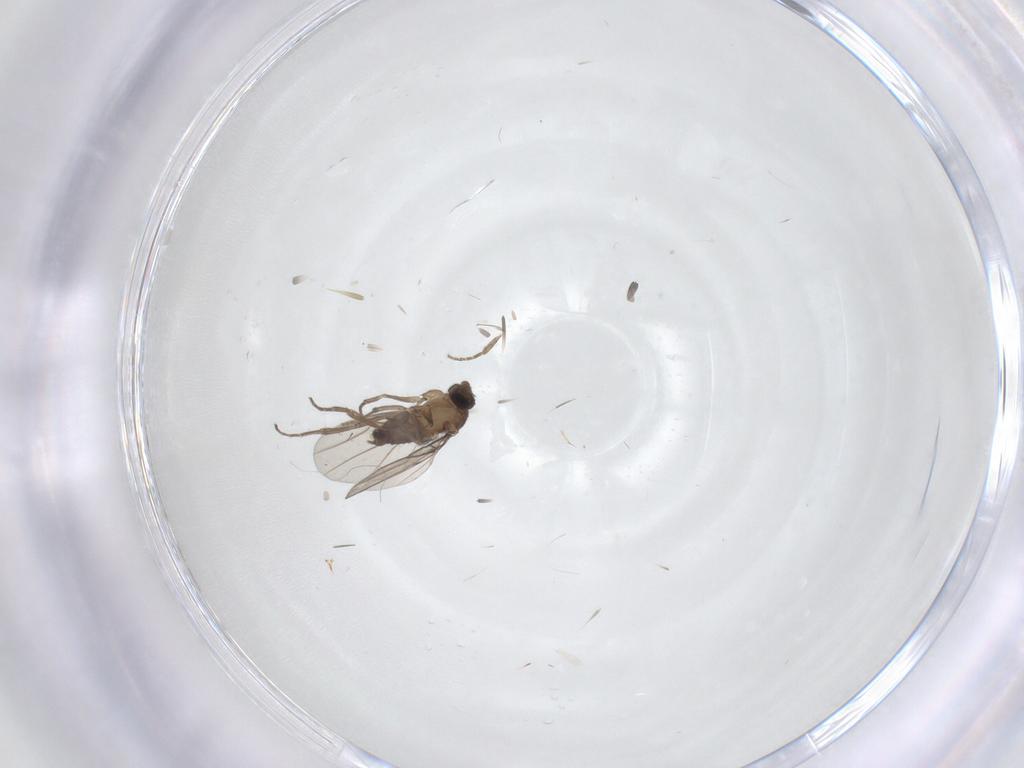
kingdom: Animalia
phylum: Arthropoda
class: Insecta
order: Diptera
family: Phoridae
